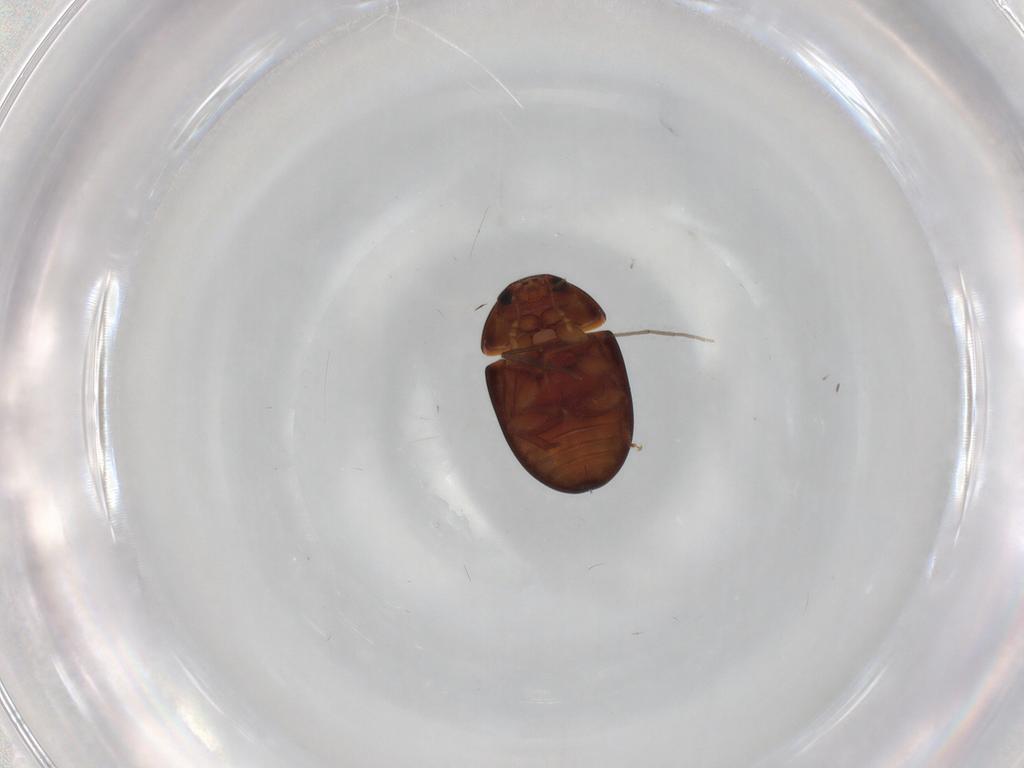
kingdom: Animalia
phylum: Arthropoda
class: Insecta
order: Coleoptera
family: Phalacridae
